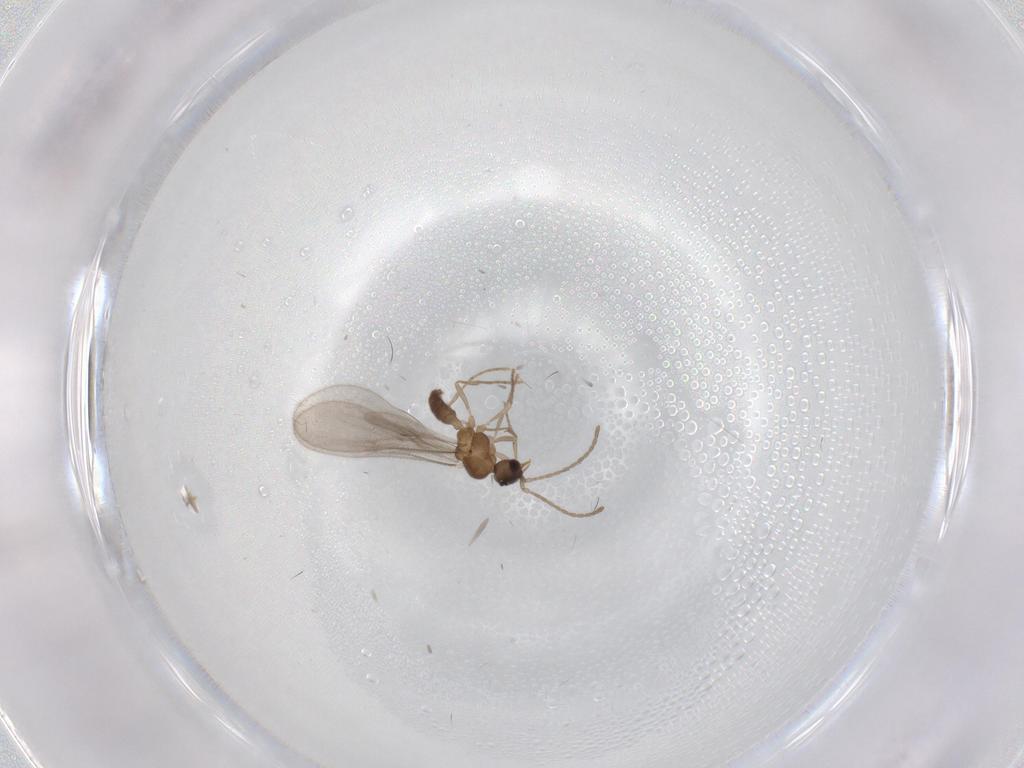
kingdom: Animalia
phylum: Arthropoda
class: Insecta
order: Hymenoptera
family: Formicidae
